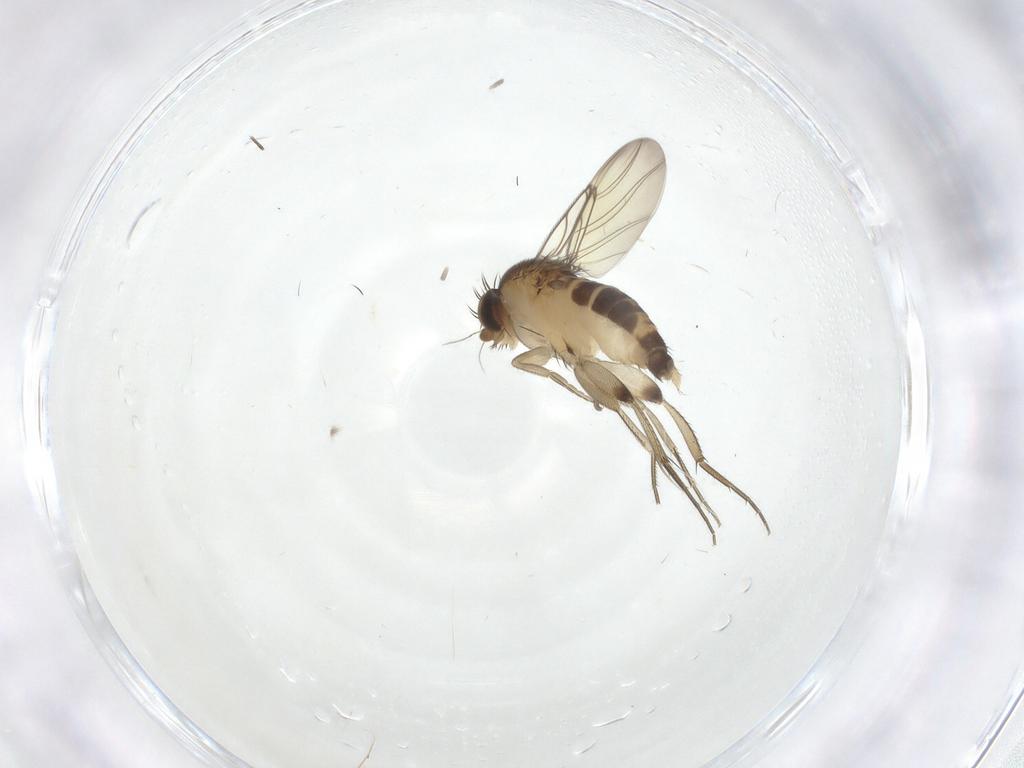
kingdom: Animalia
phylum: Arthropoda
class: Insecta
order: Diptera
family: Phoridae
